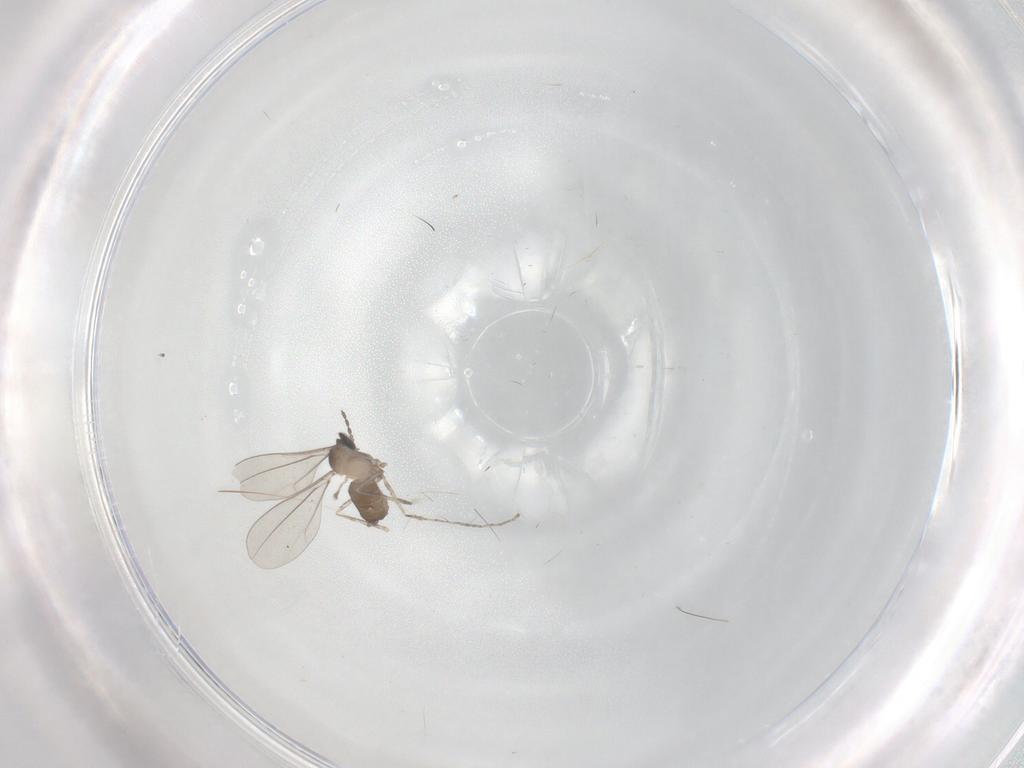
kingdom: Animalia
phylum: Arthropoda
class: Insecta
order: Diptera
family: Cecidomyiidae
